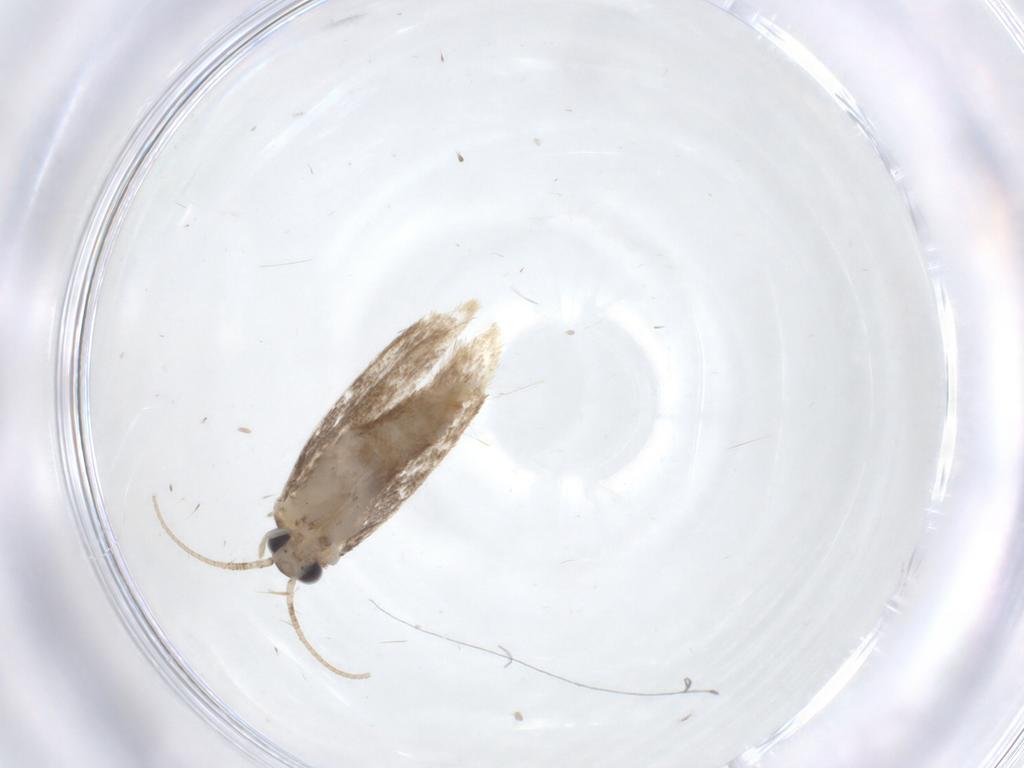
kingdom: Animalia
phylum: Arthropoda
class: Insecta
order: Lepidoptera
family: Dryadaulidae
